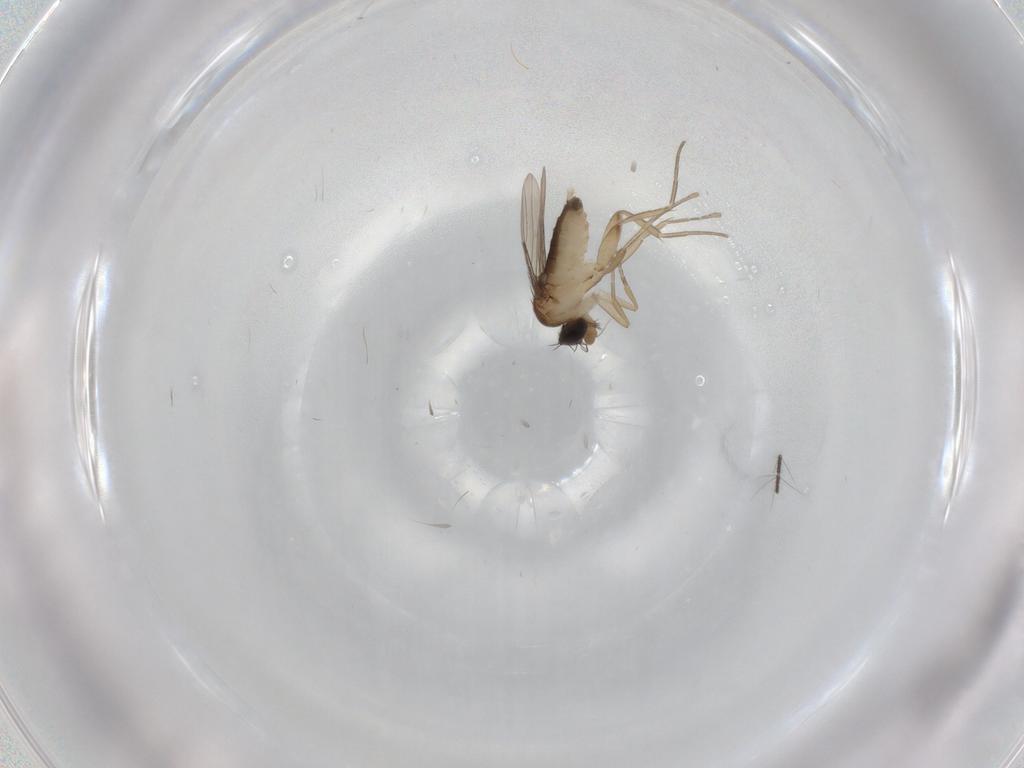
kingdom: Animalia
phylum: Arthropoda
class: Insecta
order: Diptera
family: Phoridae
